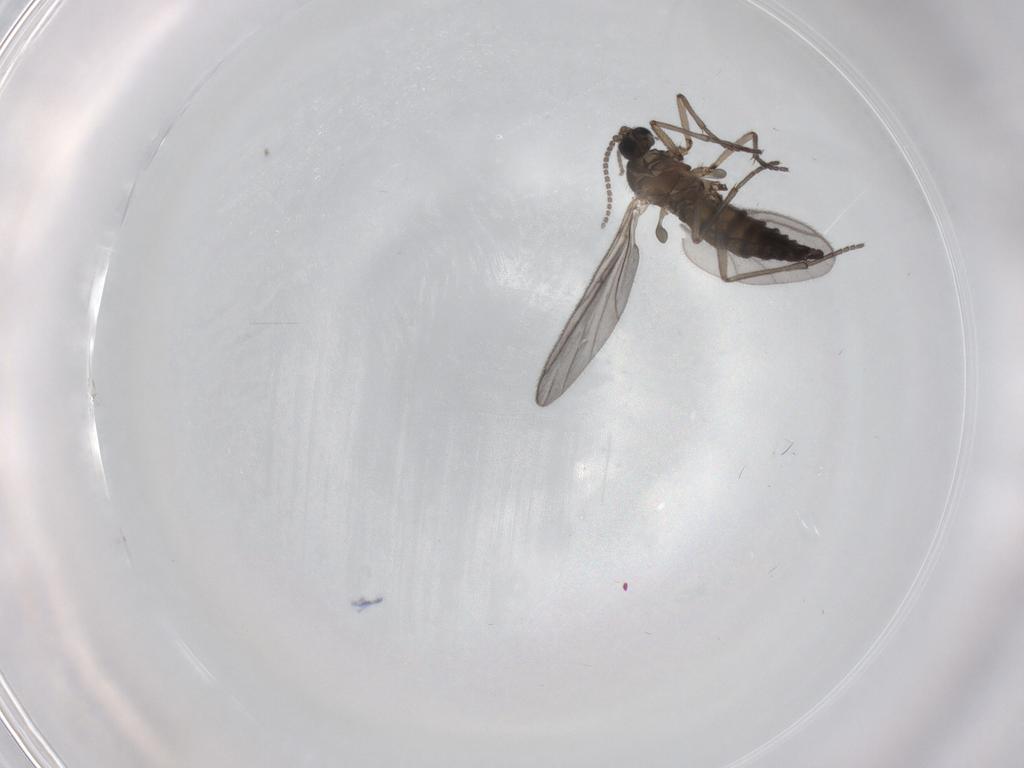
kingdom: Animalia
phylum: Arthropoda
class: Insecta
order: Diptera
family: Sciaridae
